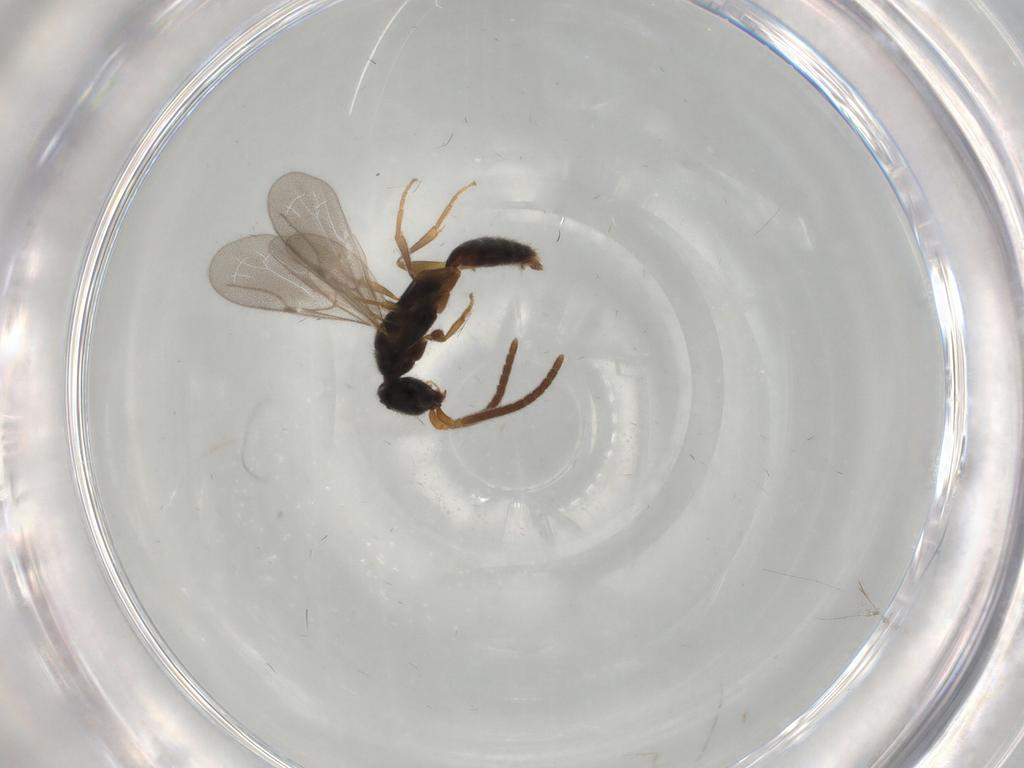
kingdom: Animalia
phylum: Arthropoda
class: Insecta
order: Hymenoptera
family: Bethylidae
